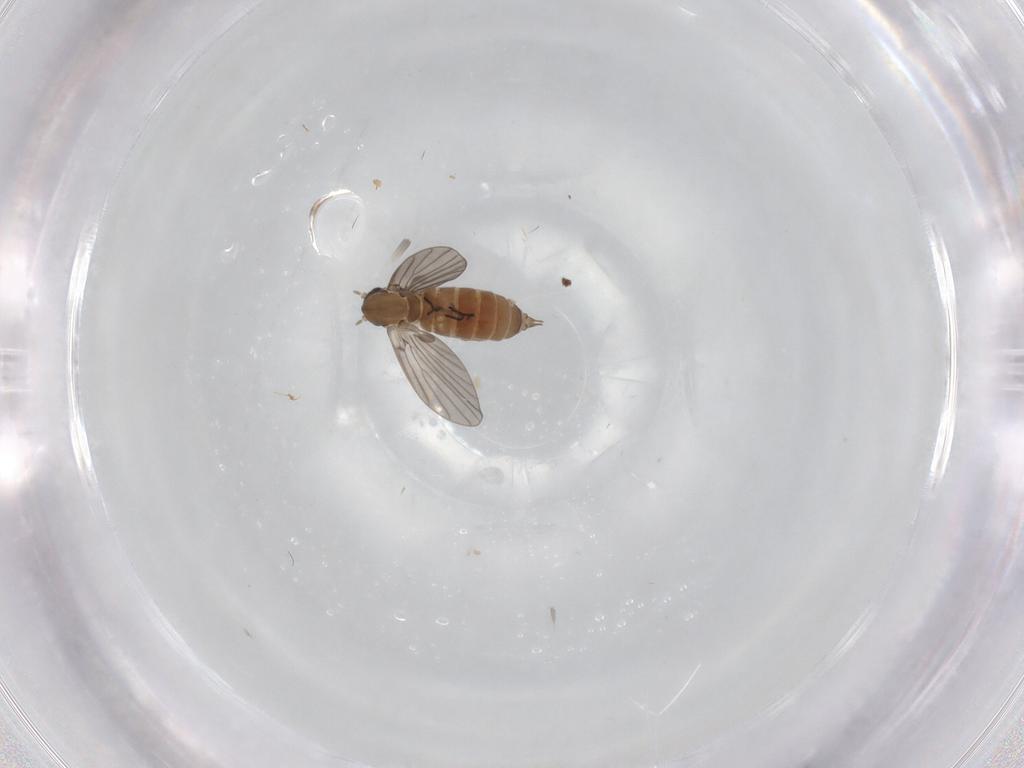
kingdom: Animalia
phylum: Arthropoda
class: Insecta
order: Diptera
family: Cecidomyiidae
